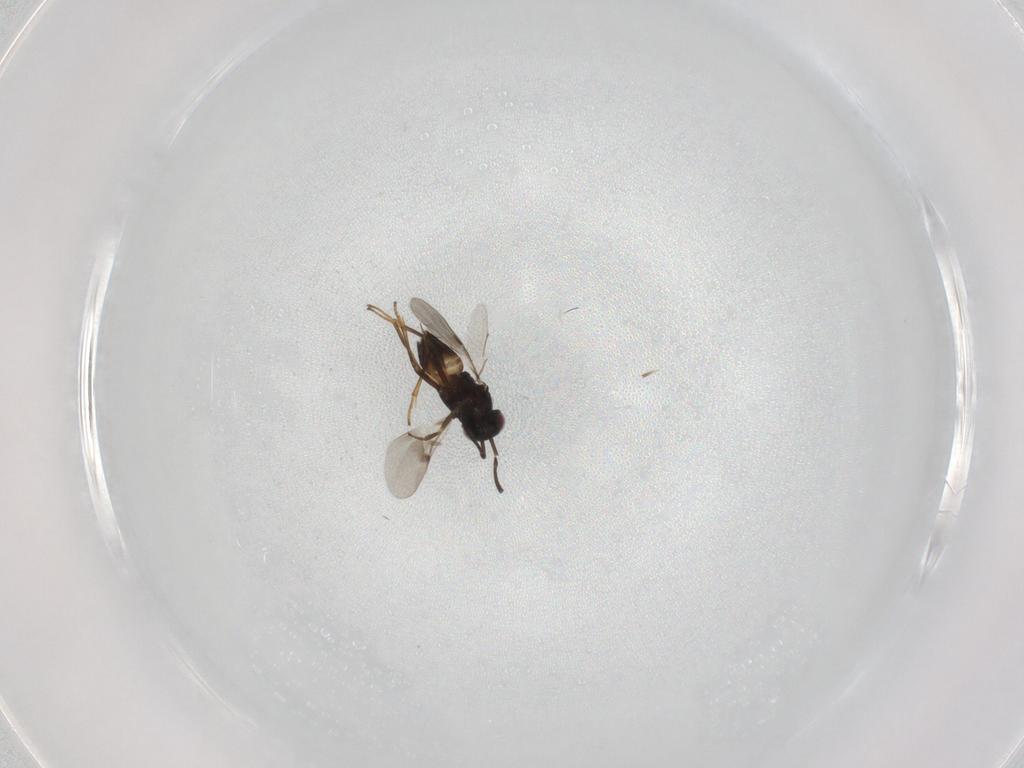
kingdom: Animalia
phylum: Arthropoda
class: Insecta
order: Hymenoptera
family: Encyrtidae
